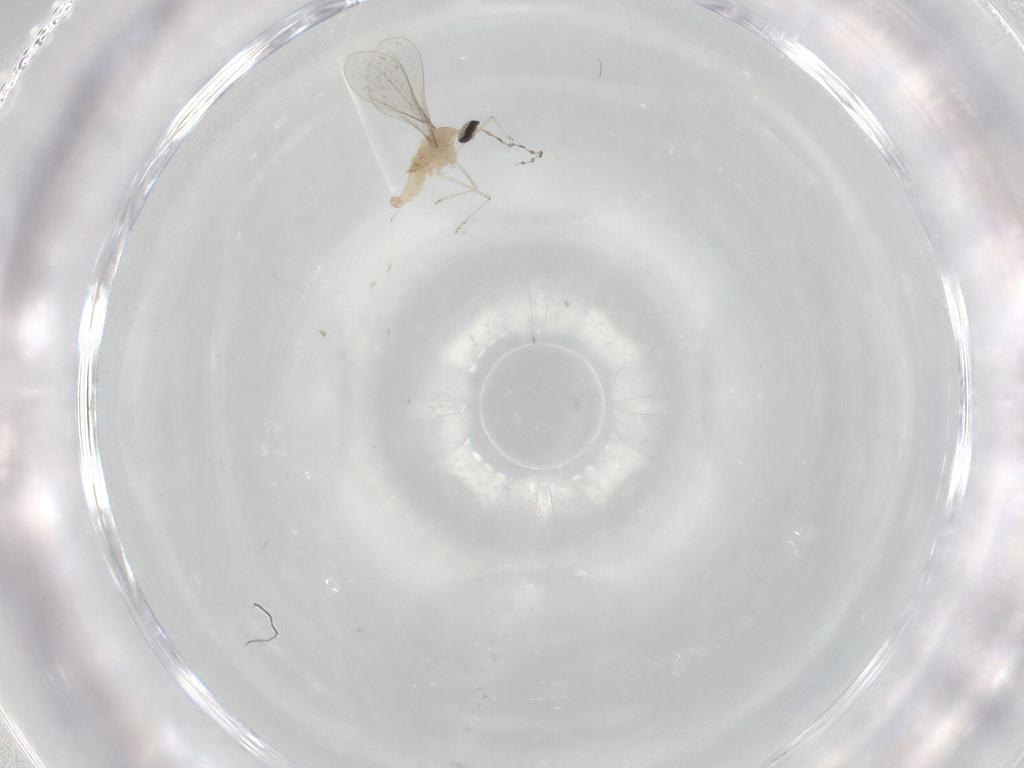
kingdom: Animalia
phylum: Arthropoda
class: Insecta
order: Diptera
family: Cecidomyiidae
